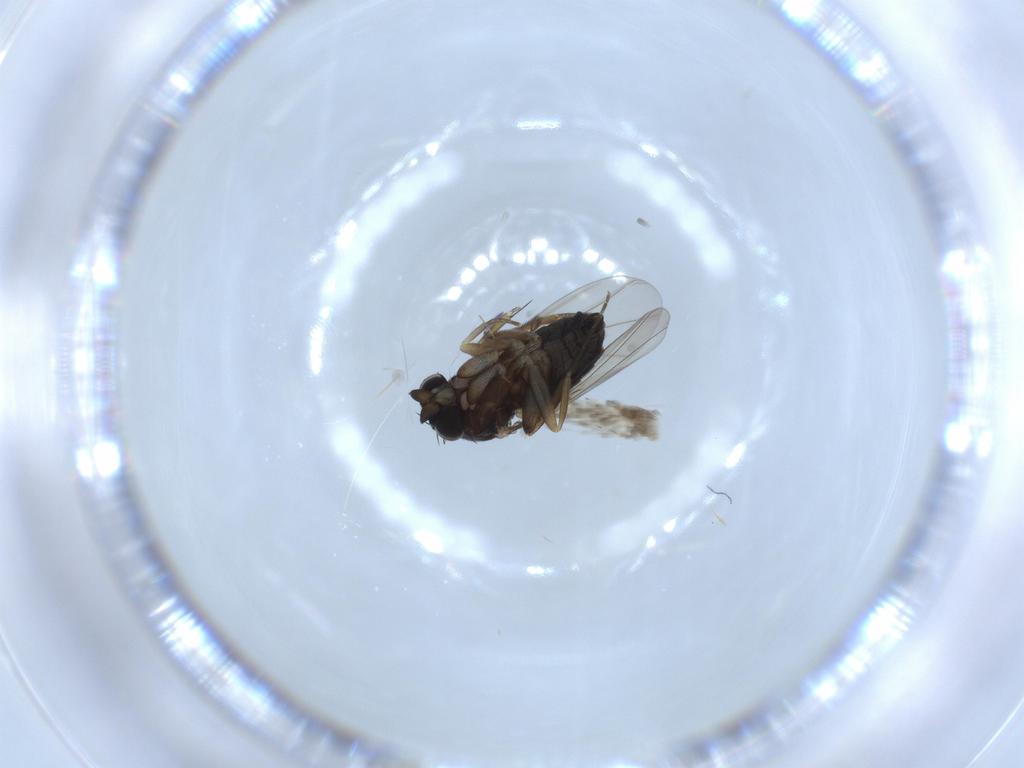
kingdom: Animalia
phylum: Arthropoda
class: Insecta
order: Diptera
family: Phoridae
